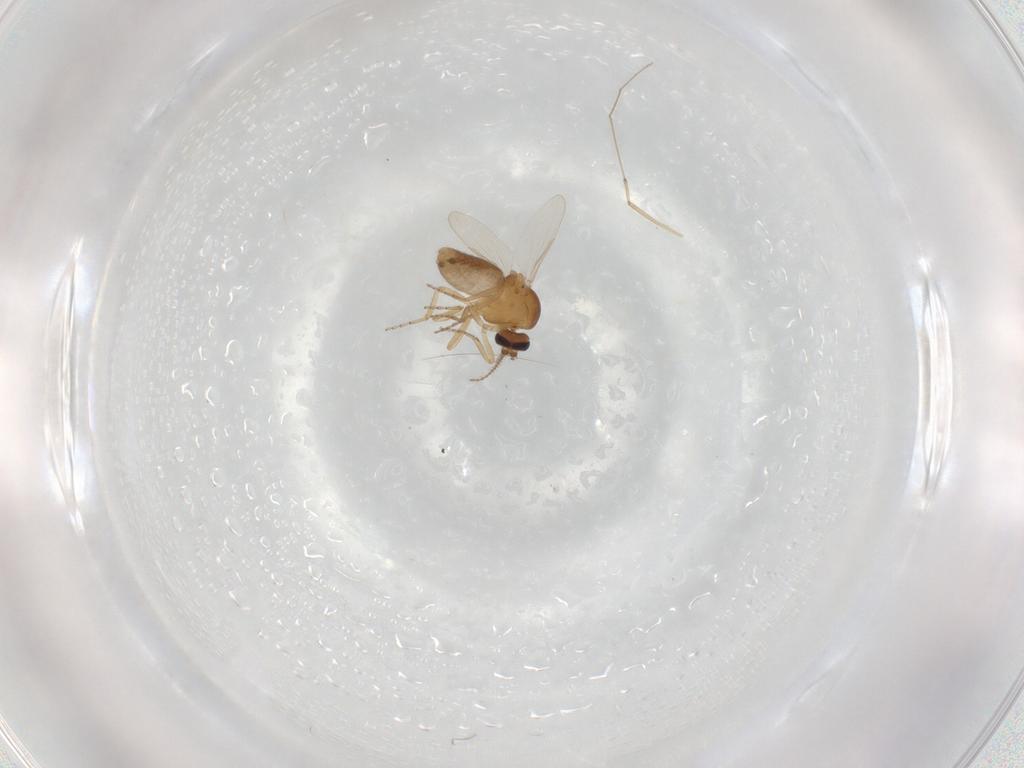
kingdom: Animalia
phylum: Arthropoda
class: Insecta
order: Diptera
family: Ceratopogonidae
